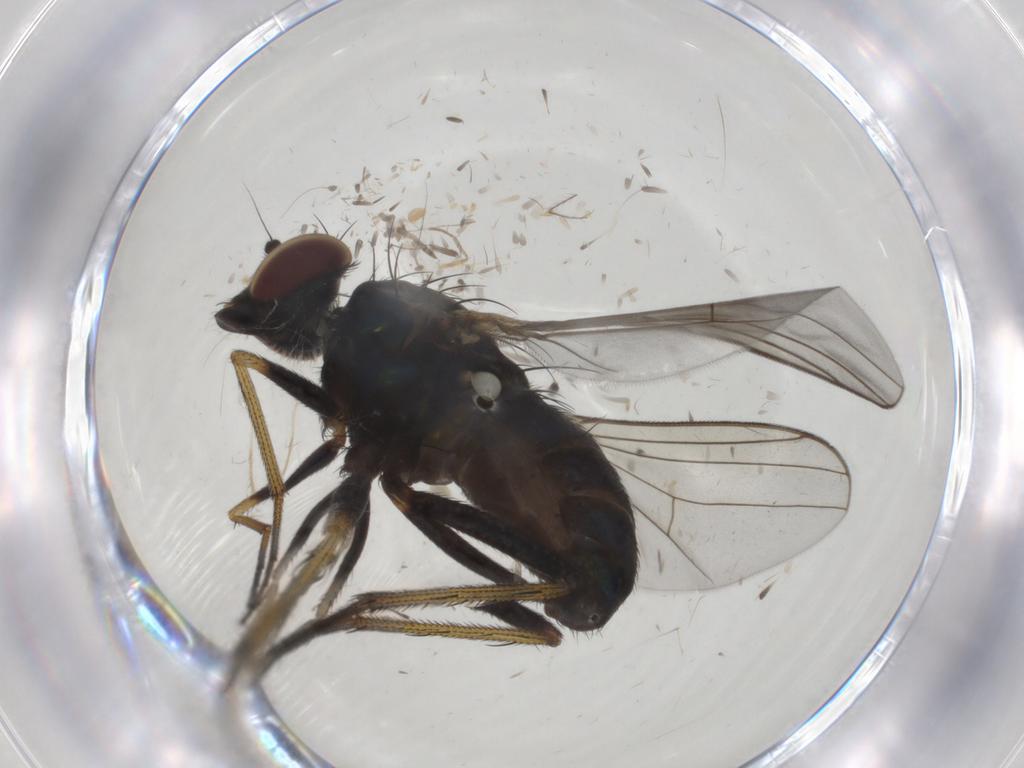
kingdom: Animalia
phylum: Arthropoda
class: Insecta
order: Diptera
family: Dolichopodidae
